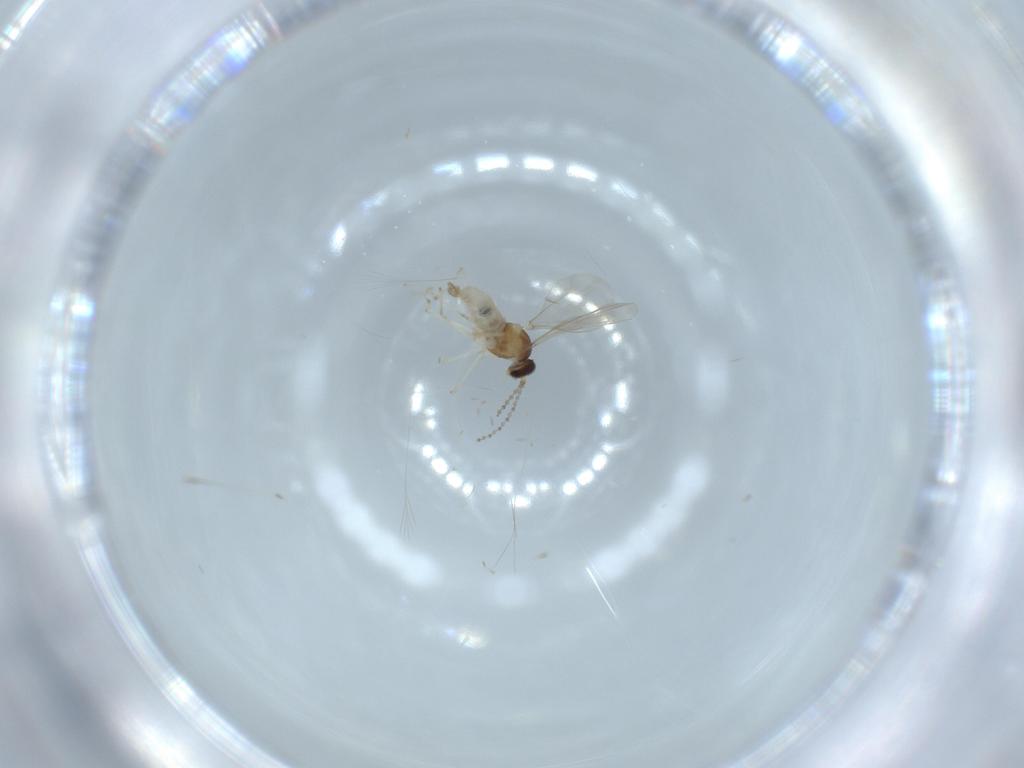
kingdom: Animalia
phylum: Arthropoda
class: Insecta
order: Diptera
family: Cecidomyiidae
